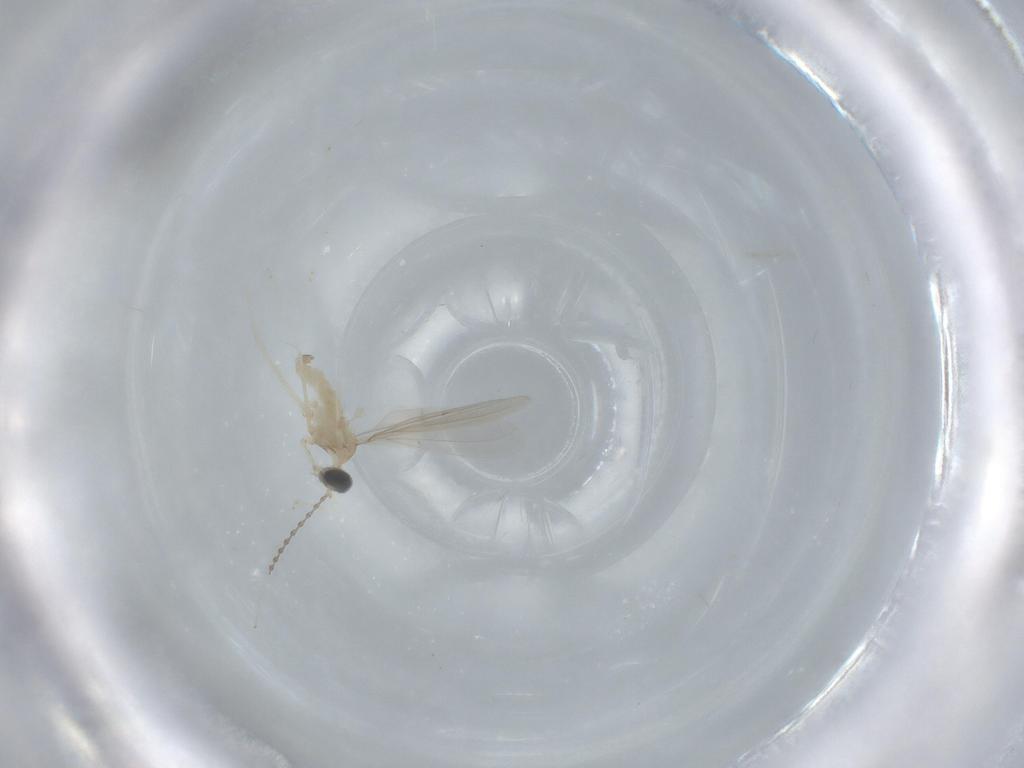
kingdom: Animalia
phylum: Arthropoda
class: Insecta
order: Diptera
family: Cecidomyiidae
